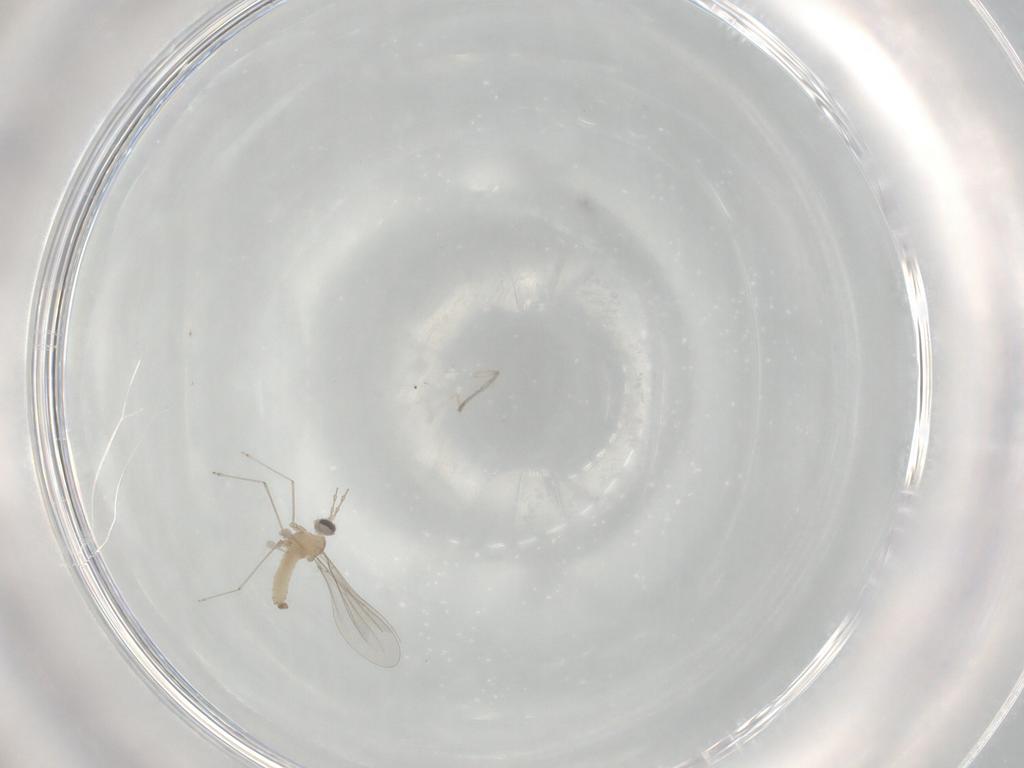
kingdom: Animalia
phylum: Arthropoda
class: Insecta
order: Diptera
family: Cecidomyiidae
